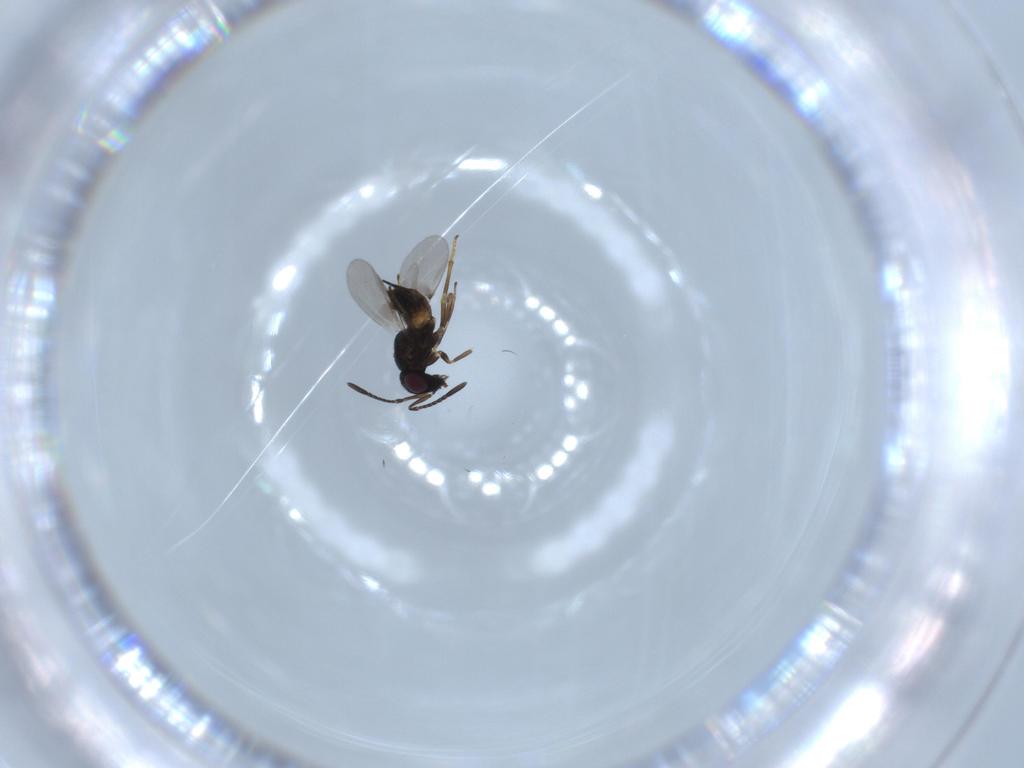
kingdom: Animalia
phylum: Arthropoda
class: Insecta
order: Hymenoptera
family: Encyrtidae
